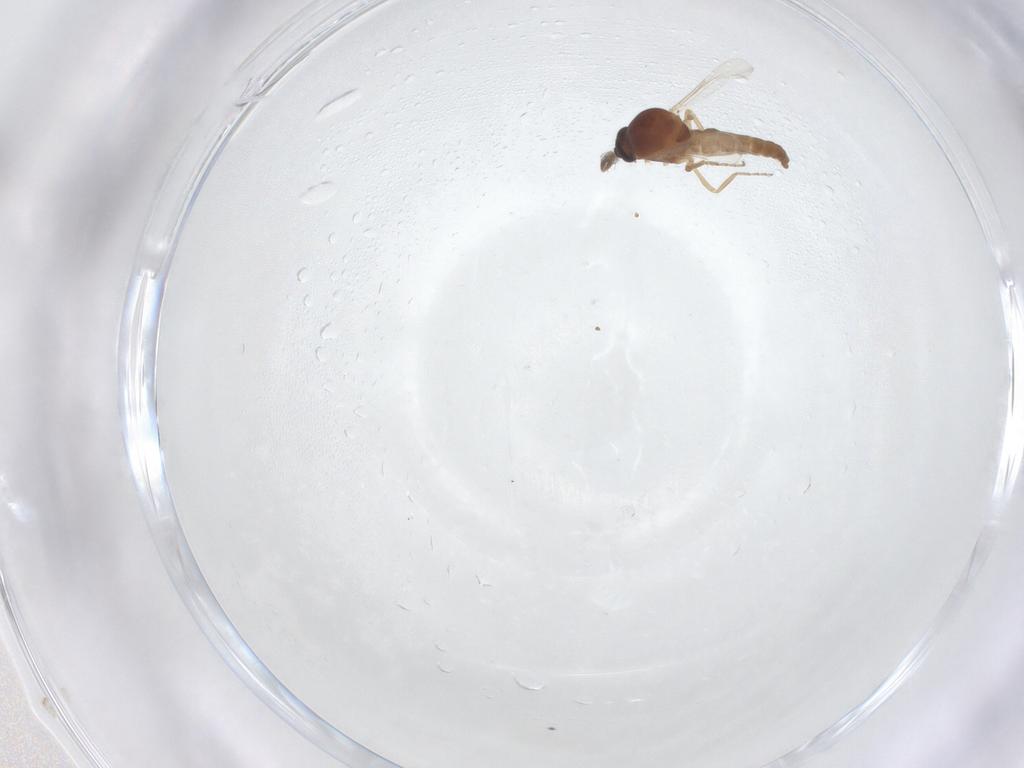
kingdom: Animalia
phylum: Arthropoda
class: Insecta
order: Diptera
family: Ceratopogonidae
